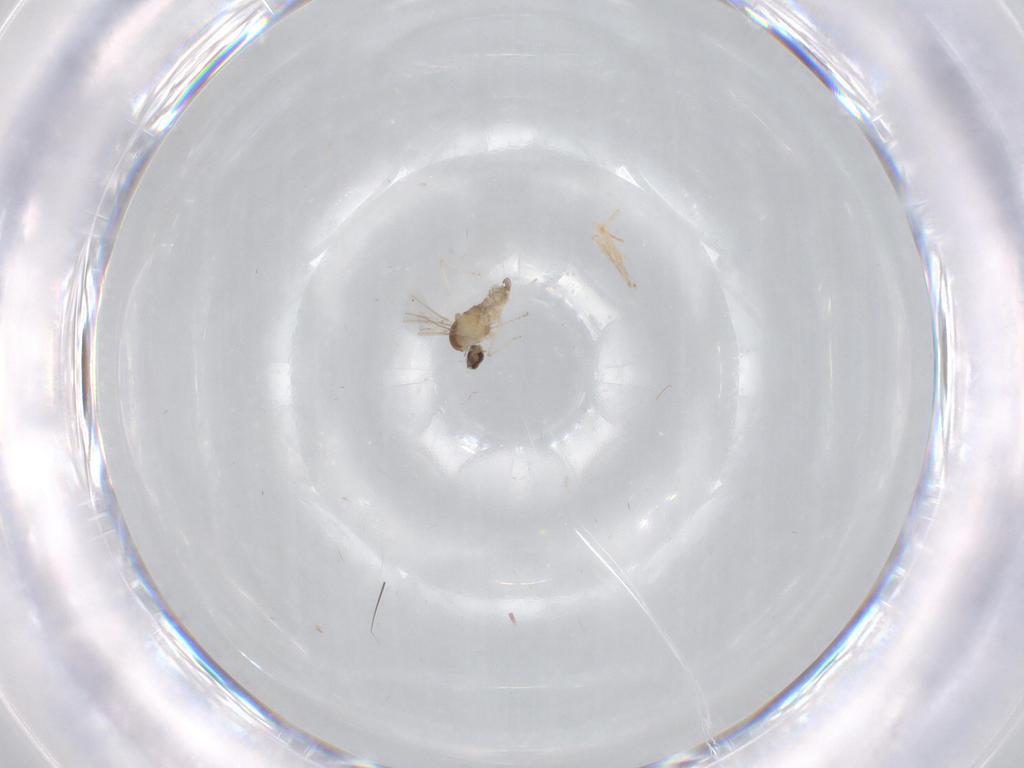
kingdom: Animalia
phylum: Arthropoda
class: Insecta
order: Diptera
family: Cecidomyiidae
